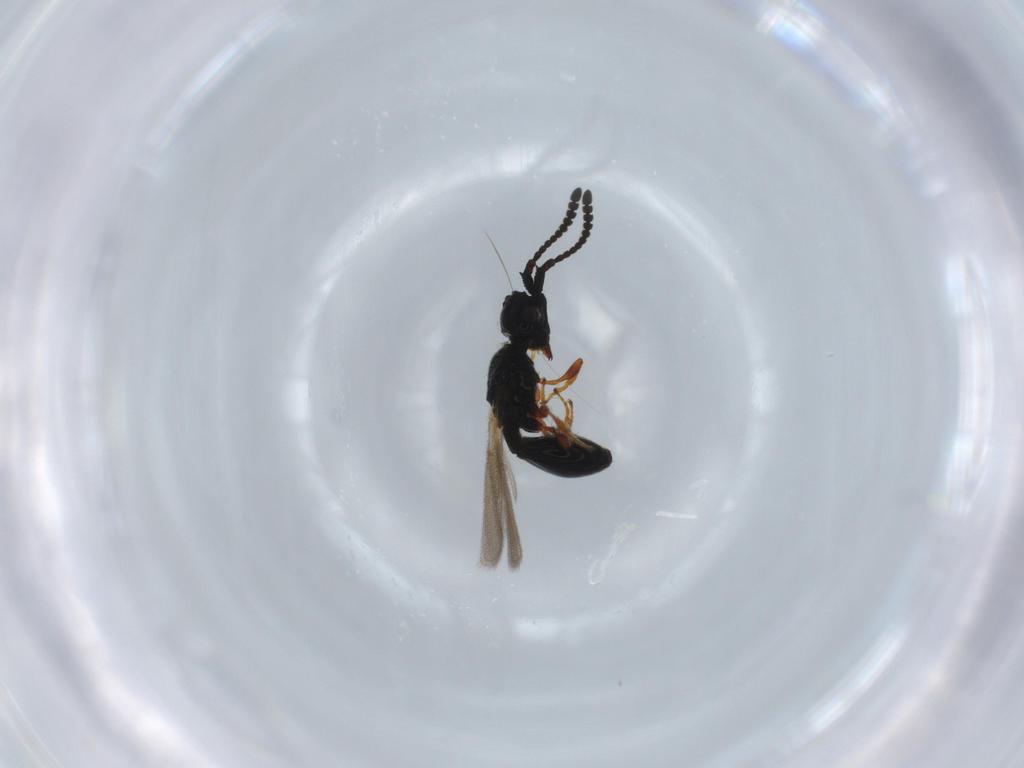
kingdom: Animalia
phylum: Arthropoda
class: Insecta
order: Hymenoptera
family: Diapriidae
